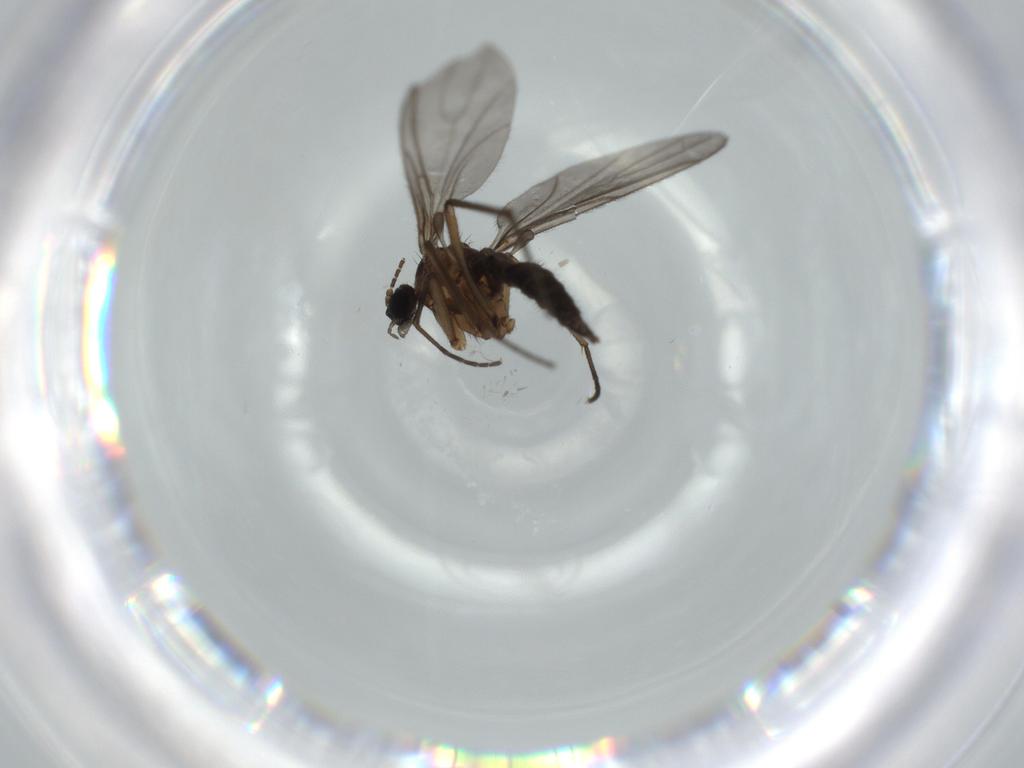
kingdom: Animalia
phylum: Arthropoda
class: Insecta
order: Diptera
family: Sciaridae
